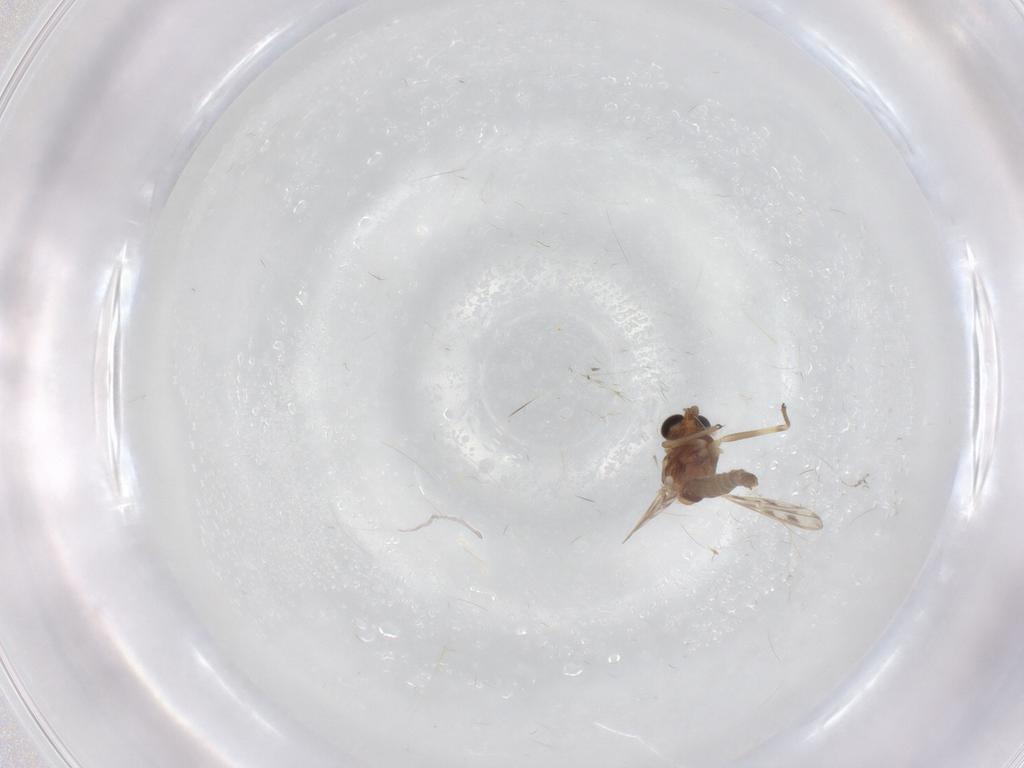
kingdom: Animalia
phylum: Arthropoda
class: Insecta
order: Diptera
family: Chironomidae
